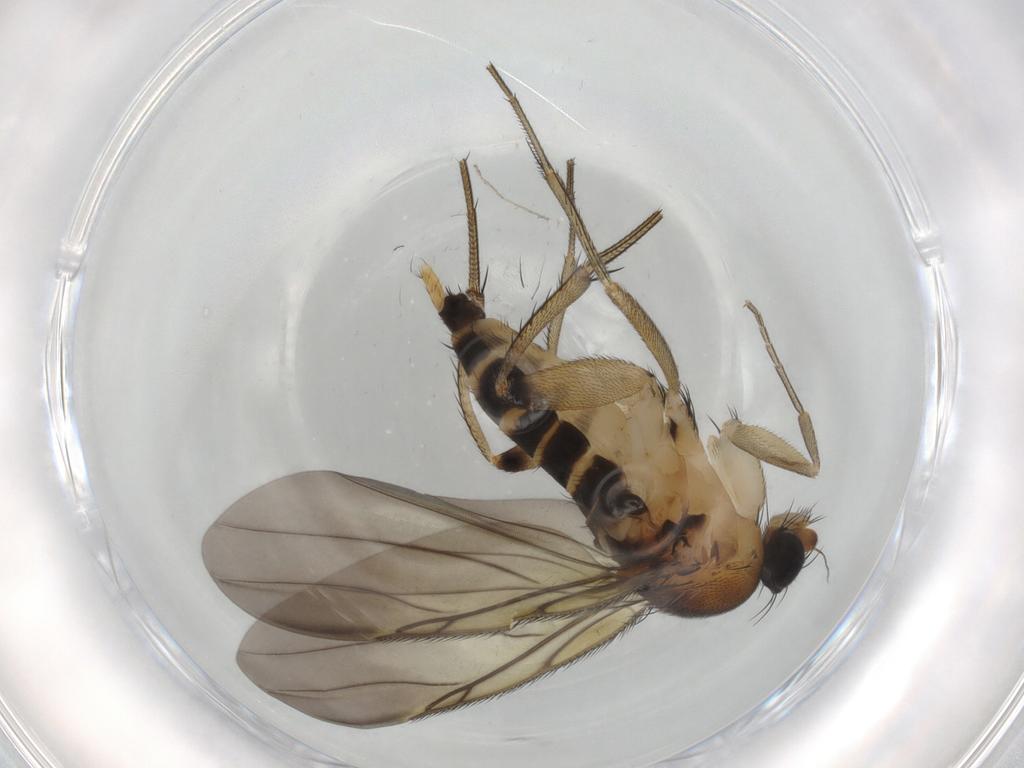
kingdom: Animalia
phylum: Arthropoda
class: Insecta
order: Diptera
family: Phoridae
